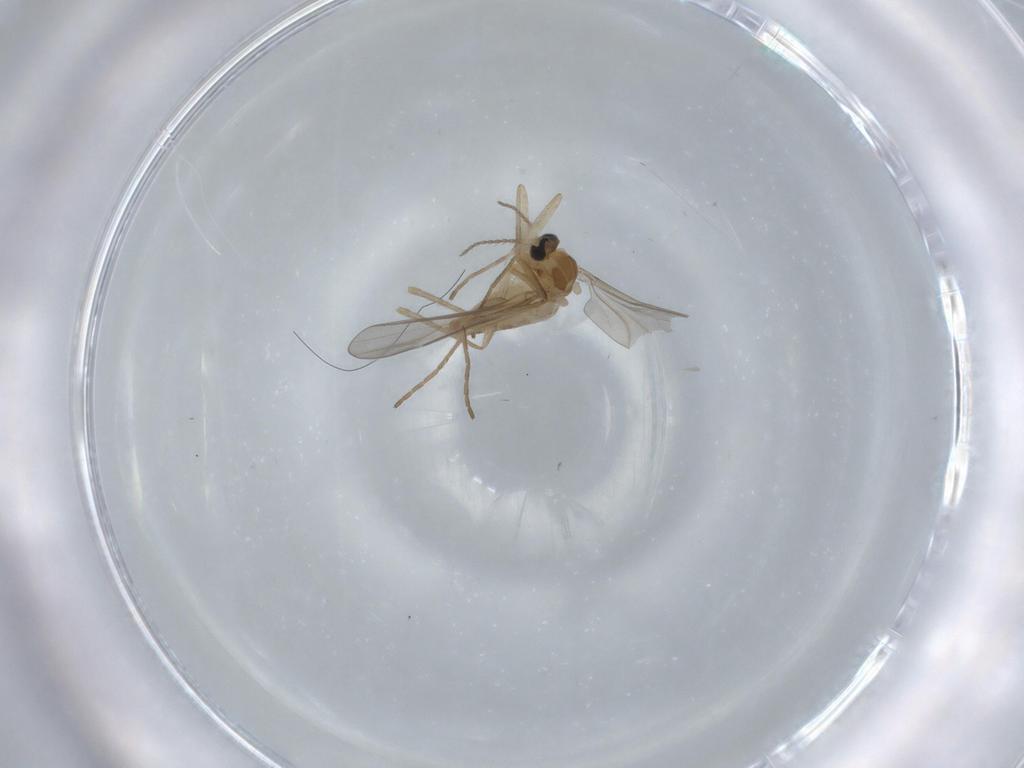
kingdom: Animalia
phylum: Arthropoda
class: Insecta
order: Diptera
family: Cecidomyiidae
